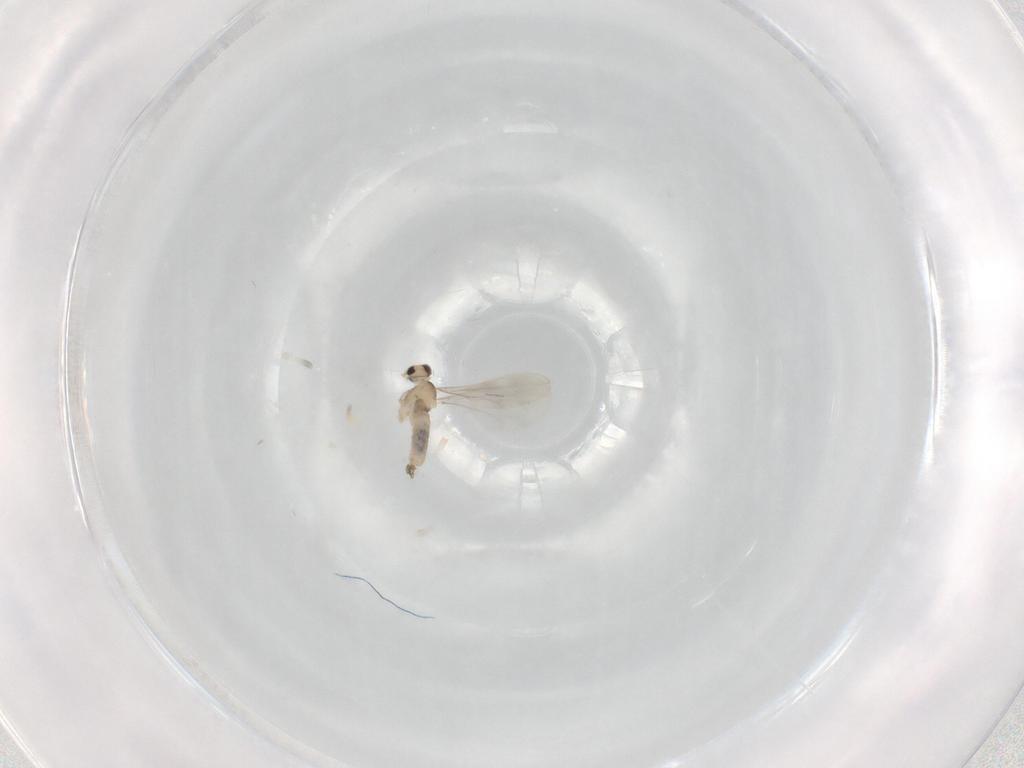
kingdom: Animalia
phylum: Arthropoda
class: Insecta
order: Diptera
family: Cecidomyiidae
